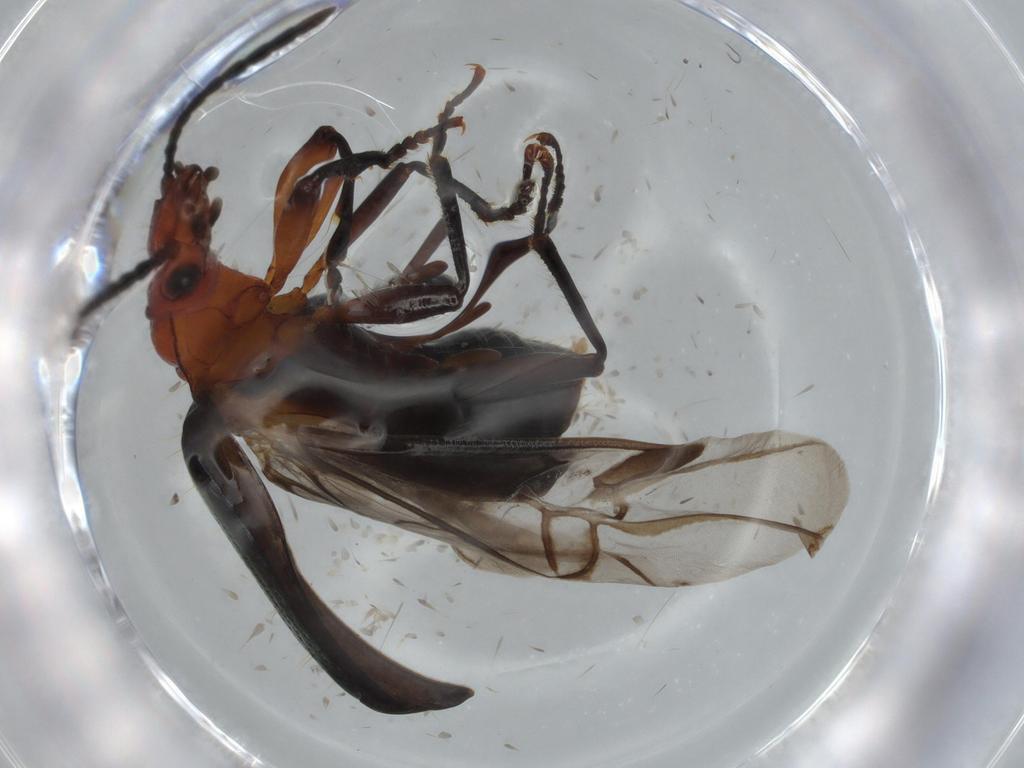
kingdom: Animalia
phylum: Arthropoda
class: Insecta
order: Coleoptera
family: Carabidae
